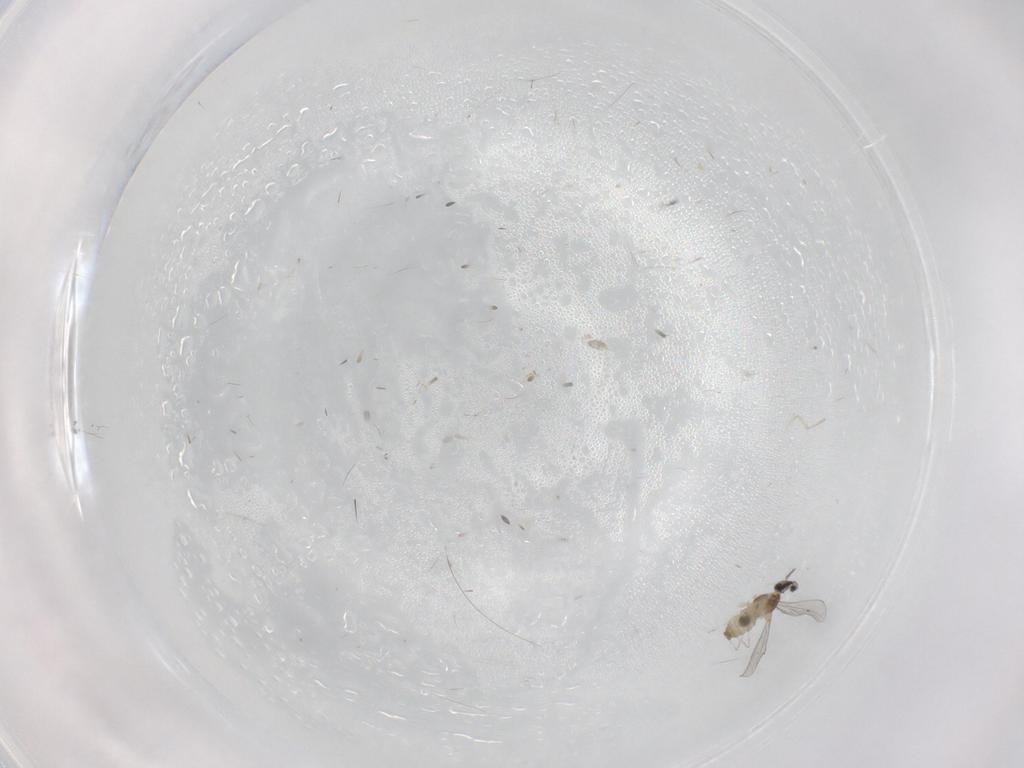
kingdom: Animalia
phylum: Arthropoda
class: Insecta
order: Diptera
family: Cecidomyiidae
